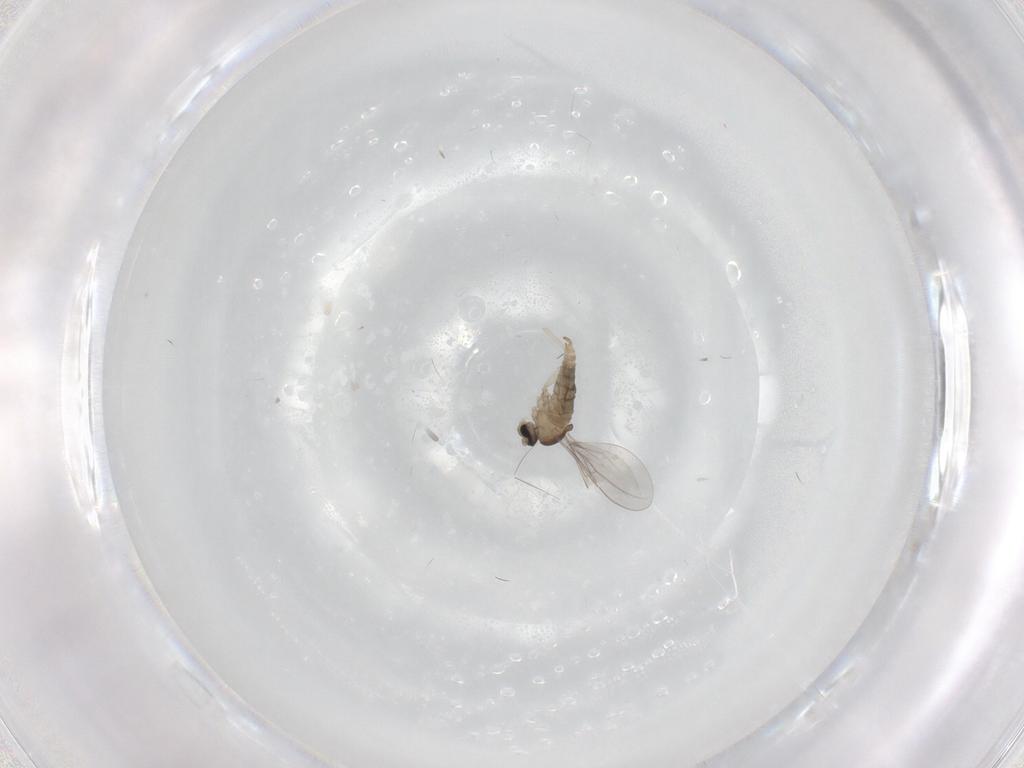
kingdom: Animalia
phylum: Arthropoda
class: Insecta
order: Diptera
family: Cecidomyiidae
